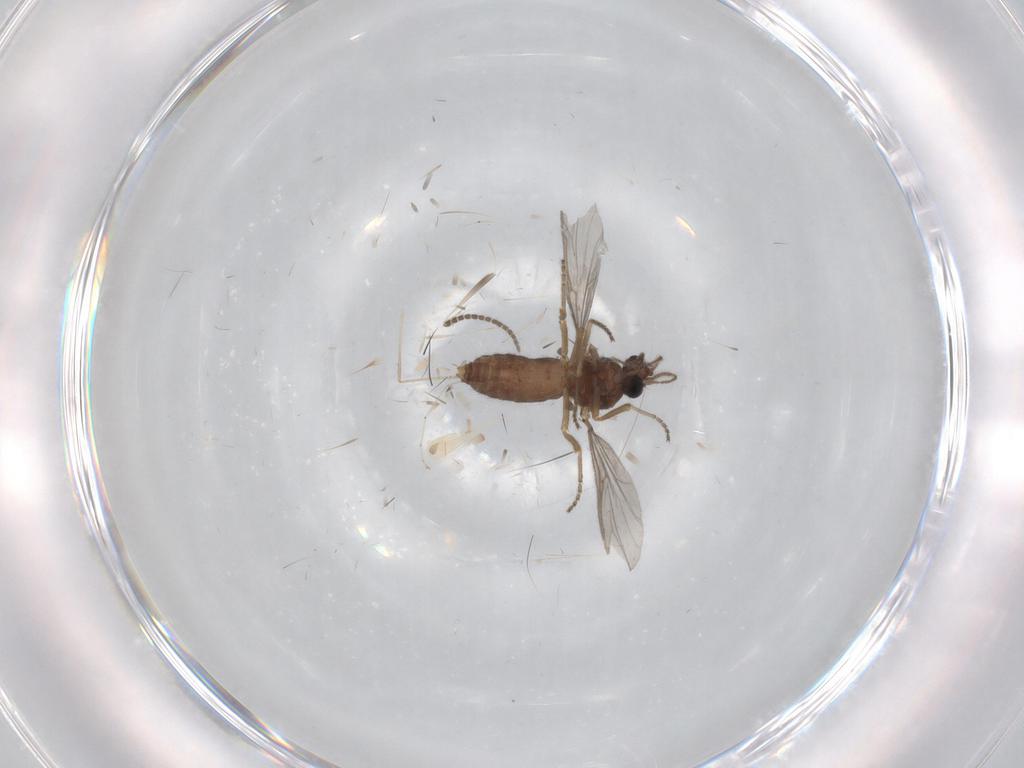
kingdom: Animalia
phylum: Arthropoda
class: Insecta
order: Diptera
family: Ceratopogonidae
